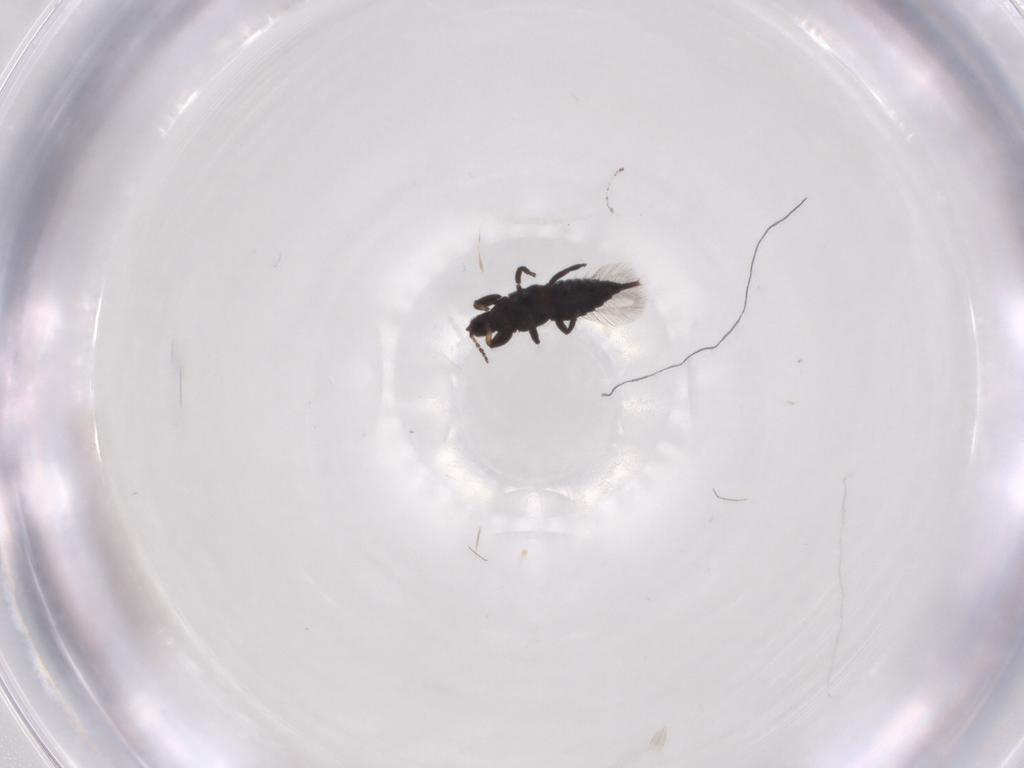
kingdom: Animalia
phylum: Arthropoda
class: Insecta
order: Thysanoptera
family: Phlaeothripidae
